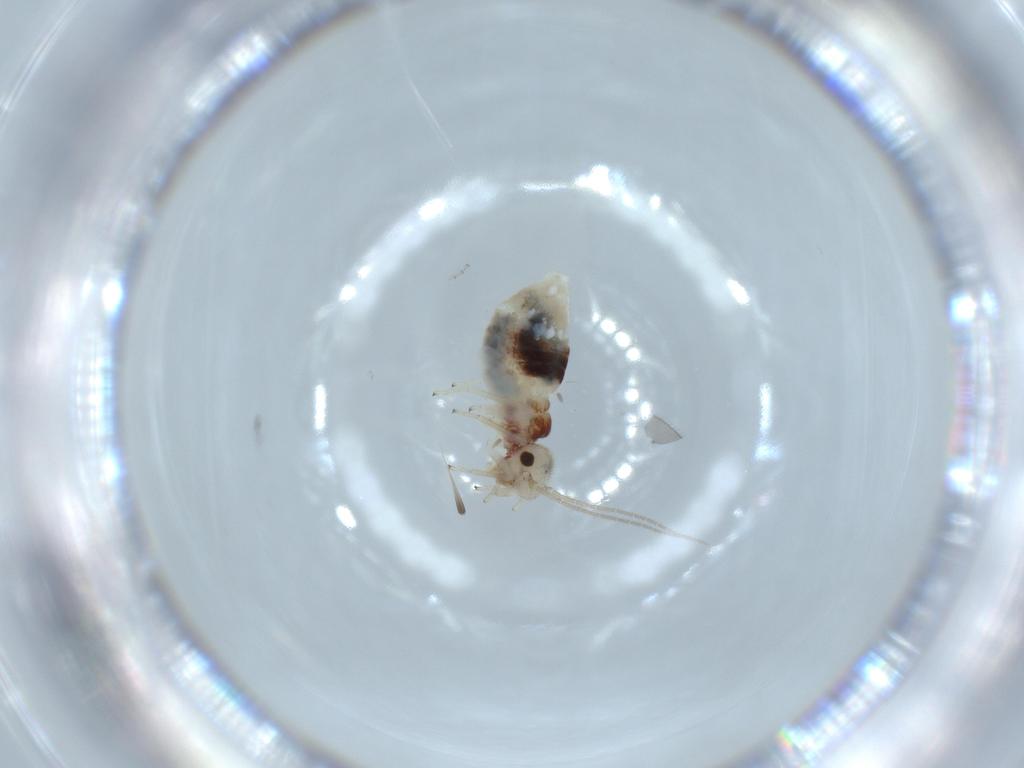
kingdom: Animalia
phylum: Arthropoda
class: Insecta
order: Psocodea
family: Caeciliusidae
